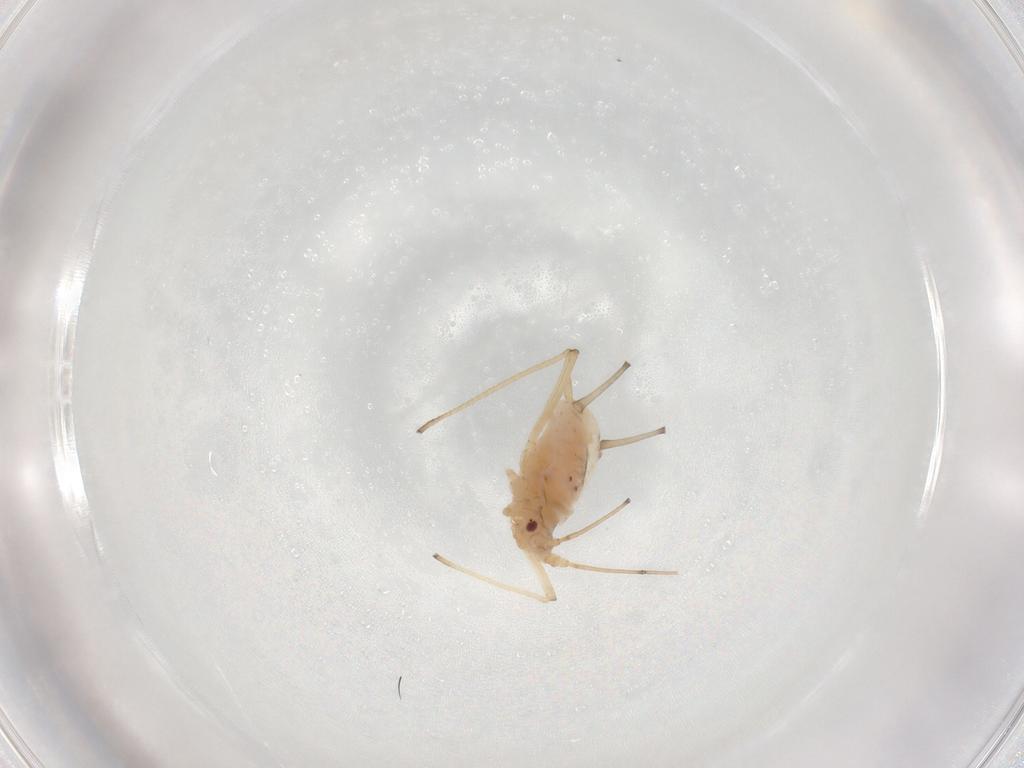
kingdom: Animalia
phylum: Arthropoda
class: Insecta
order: Hemiptera
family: Aphididae
